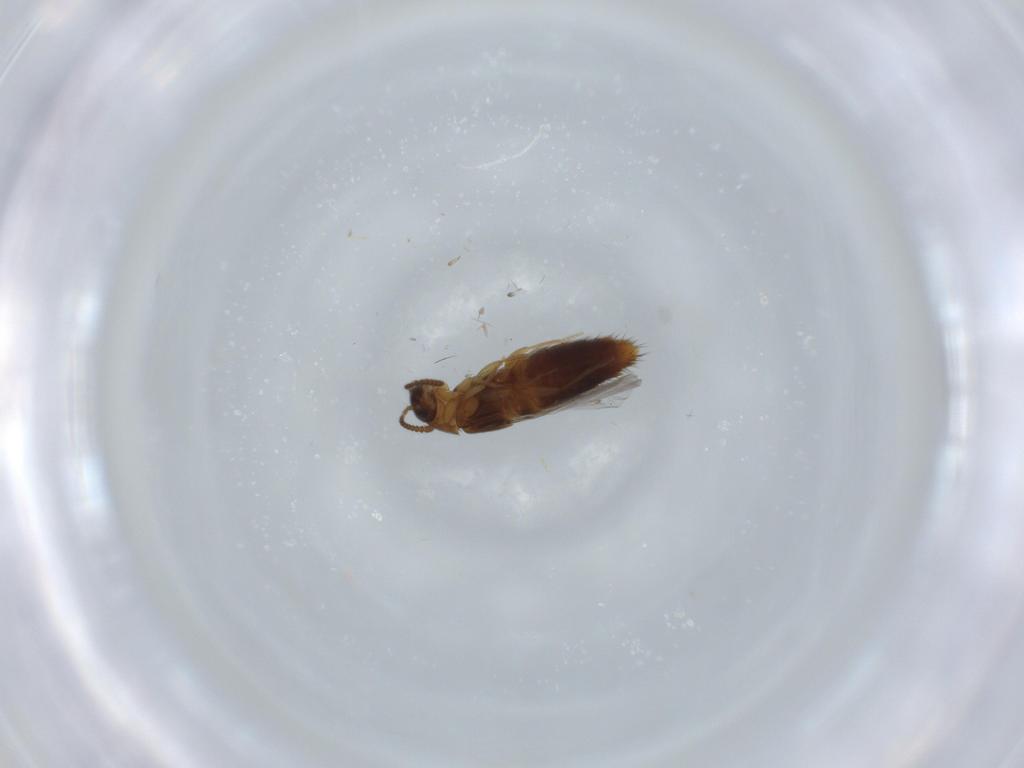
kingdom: Animalia
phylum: Arthropoda
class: Insecta
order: Coleoptera
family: Staphylinidae
